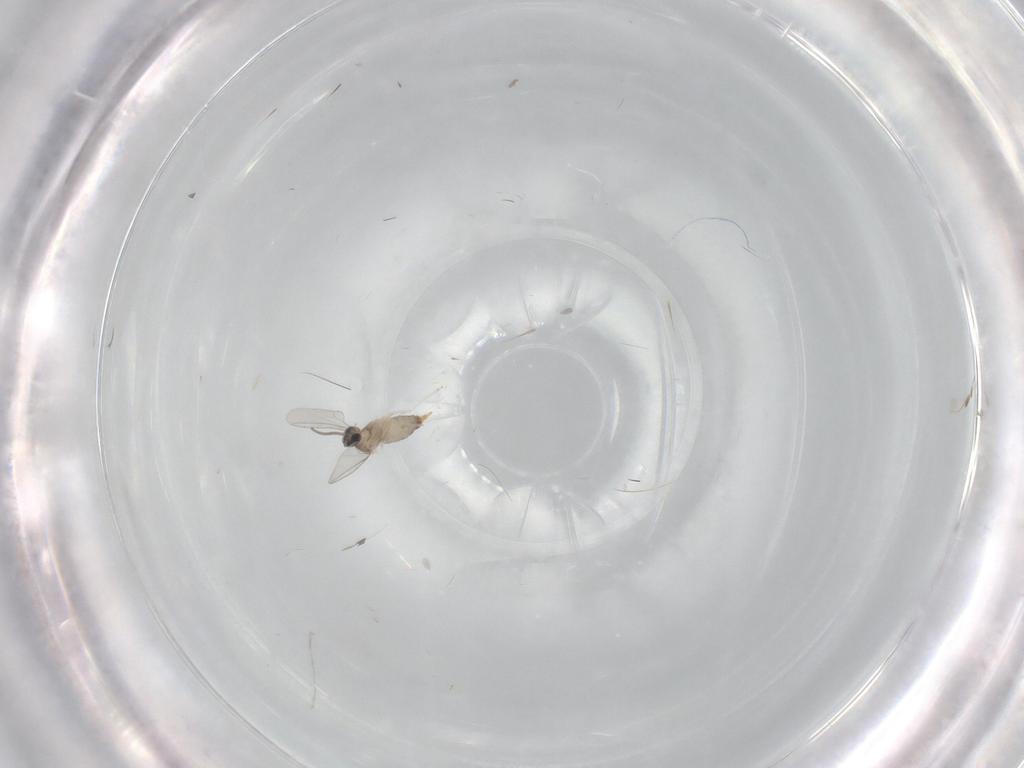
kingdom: Animalia
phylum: Arthropoda
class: Insecta
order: Diptera
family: Cecidomyiidae
